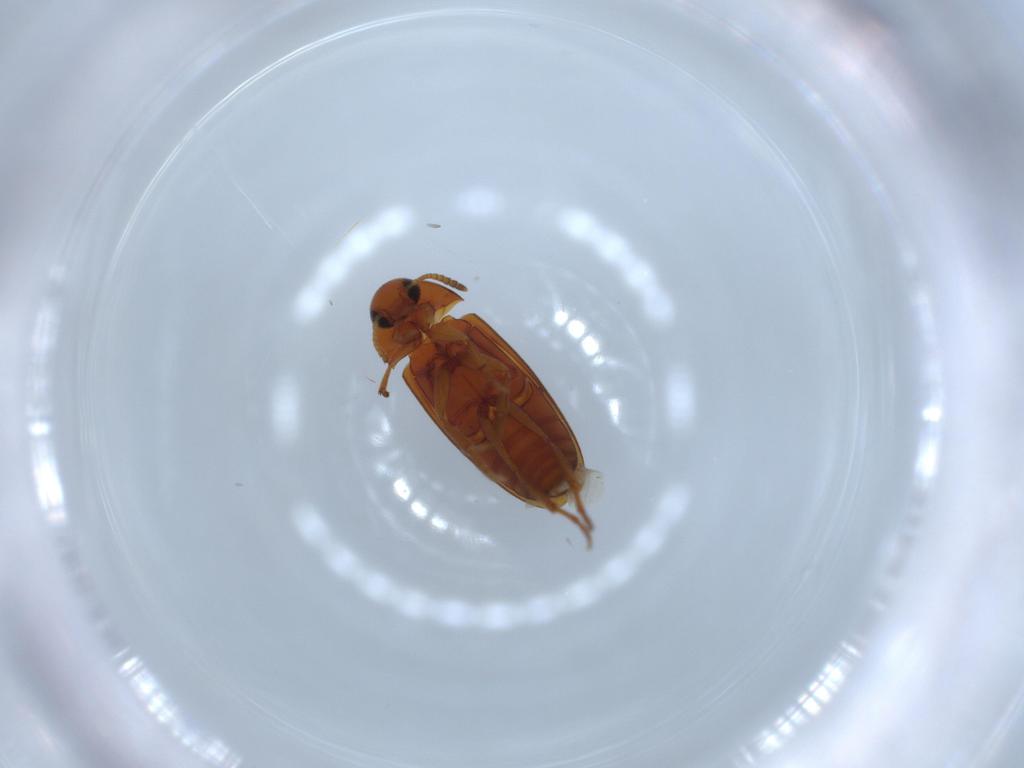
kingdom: Animalia
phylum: Arthropoda
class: Insecta
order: Coleoptera
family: Scraptiidae
